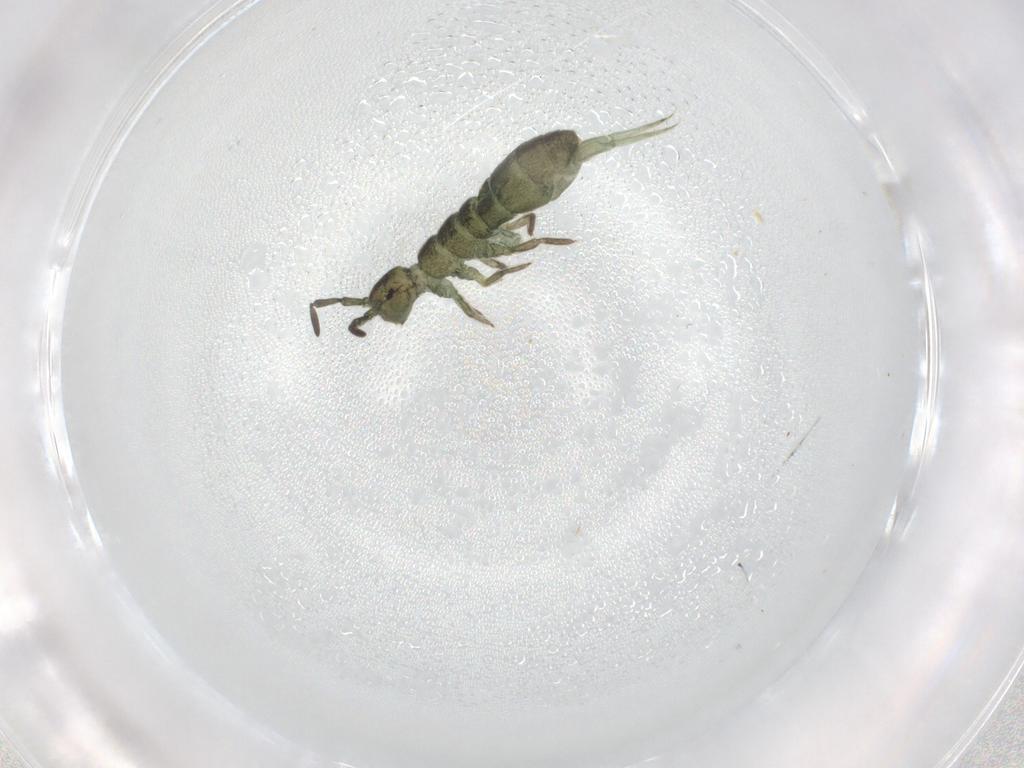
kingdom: Animalia
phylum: Arthropoda
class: Collembola
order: Entomobryomorpha
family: Isotomidae
